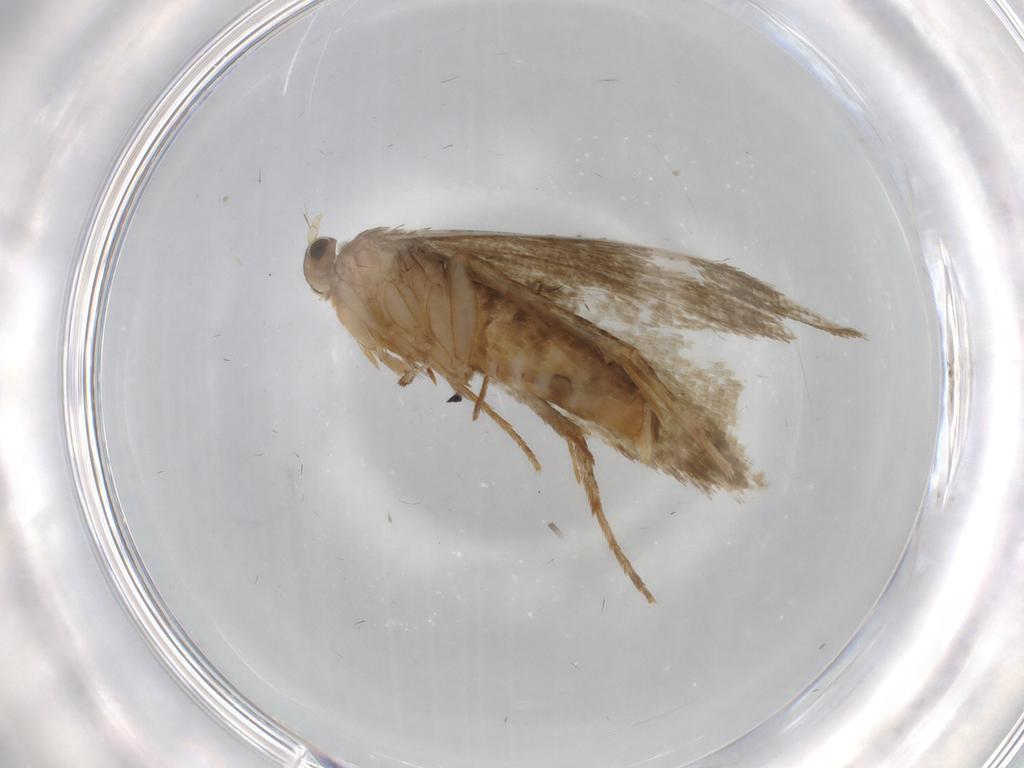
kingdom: Animalia
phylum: Arthropoda
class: Insecta
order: Lepidoptera
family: Tineidae
